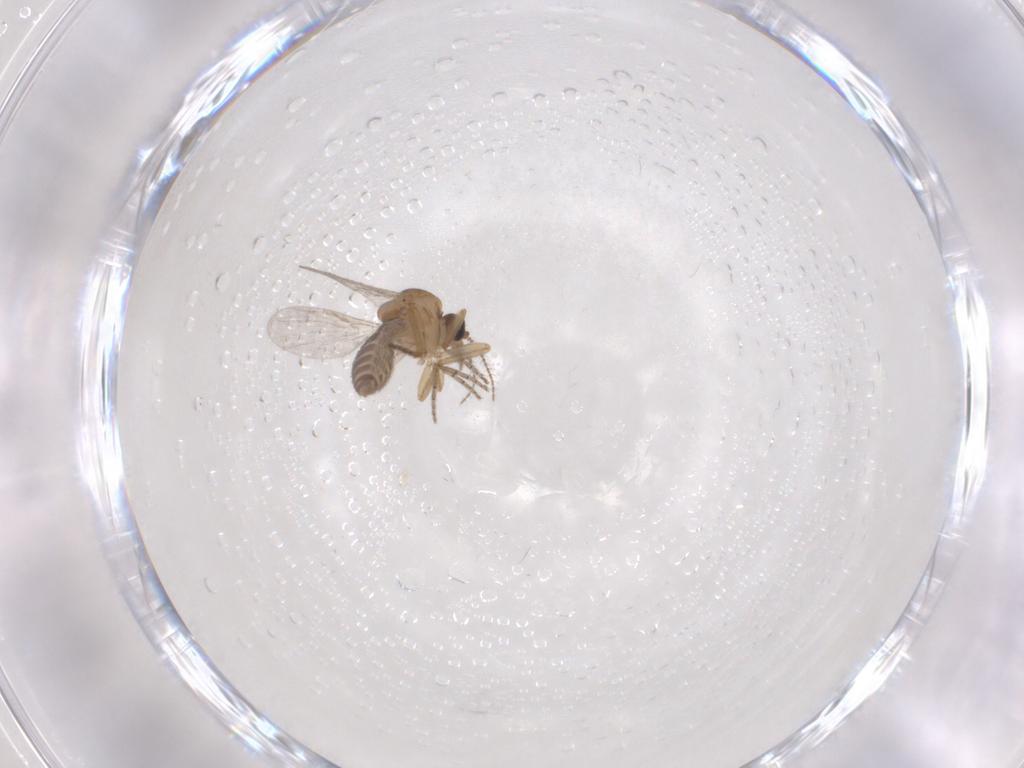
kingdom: Animalia
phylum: Arthropoda
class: Insecta
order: Diptera
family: Ceratopogonidae
